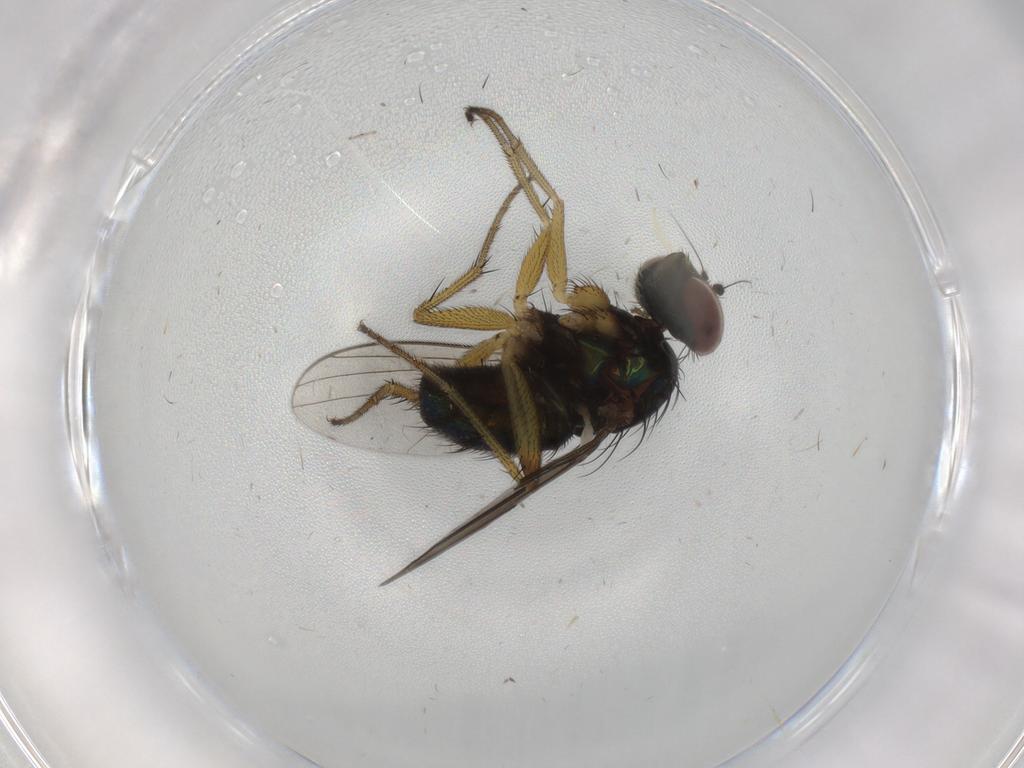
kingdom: Animalia
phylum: Arthropoda
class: Insecta
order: Diptera
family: Dolichopodidae
